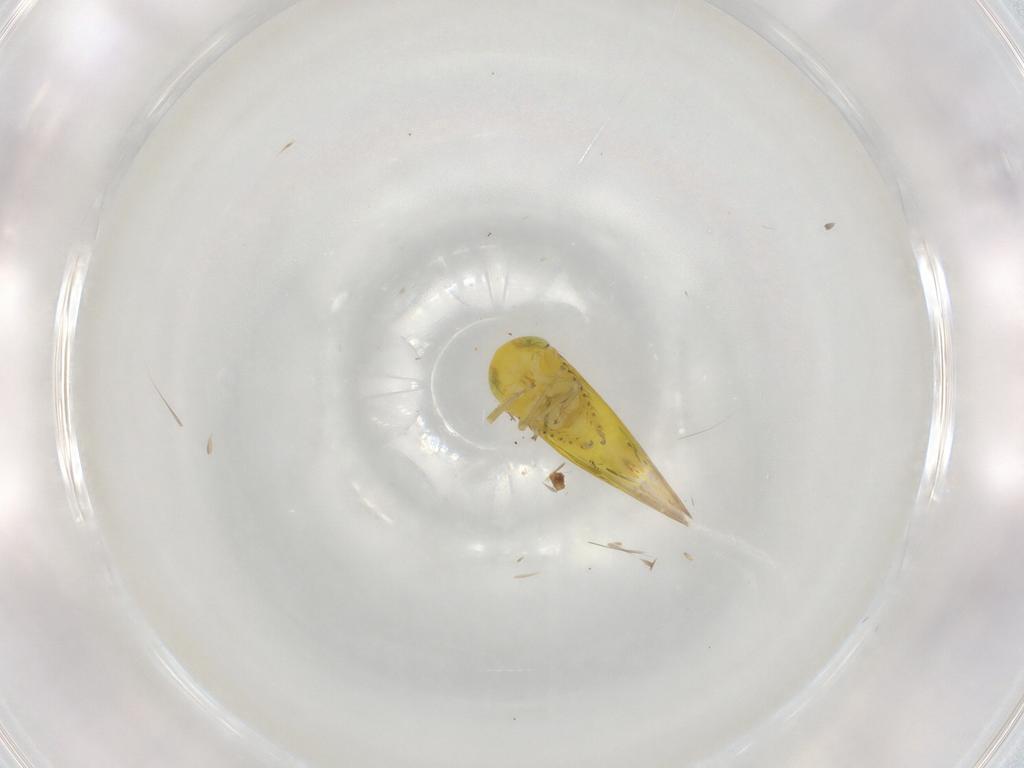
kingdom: Animalia
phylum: Arthropoda
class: Insecta
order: Hemiptera
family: Cicadellidae
